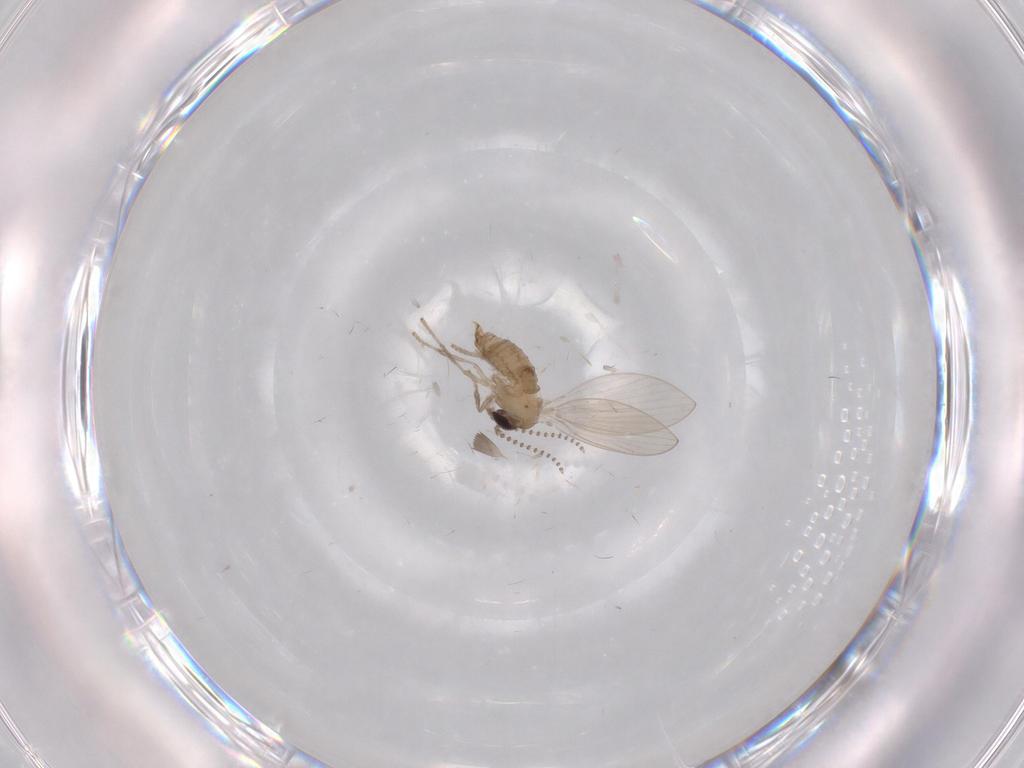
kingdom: Animalia
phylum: Arthropoda
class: Insecta
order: Diptera
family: Limoniidae
